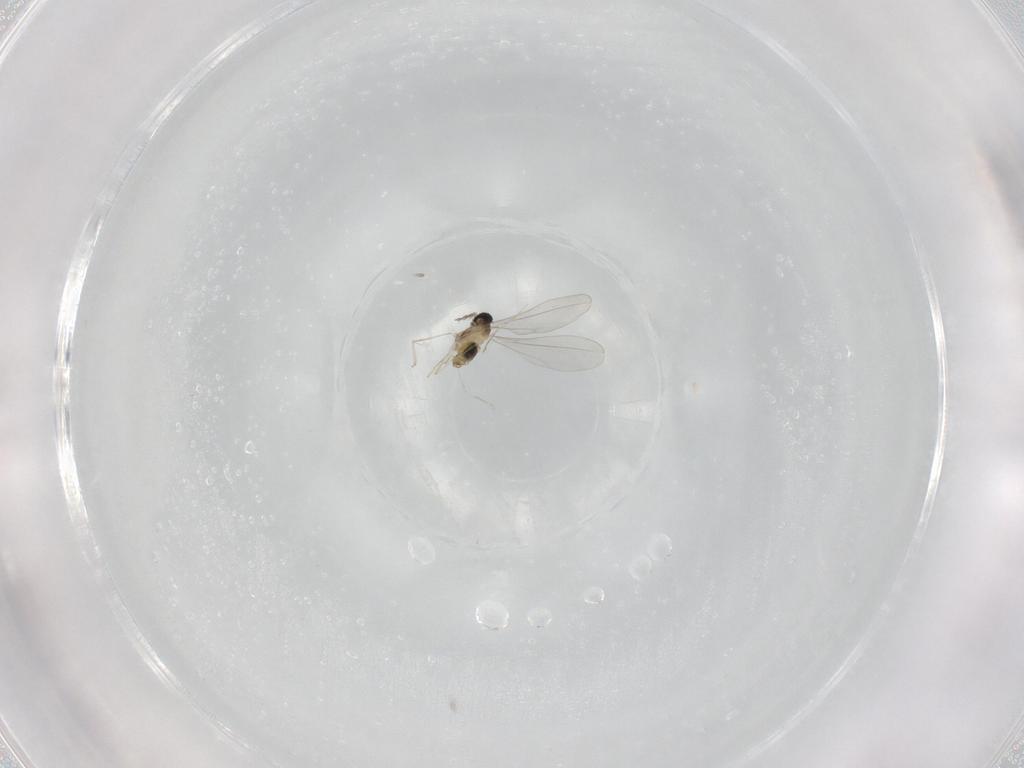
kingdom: Animalia
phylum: Arthropoda
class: Insecta
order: Diptera
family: Cecidomyiidae
